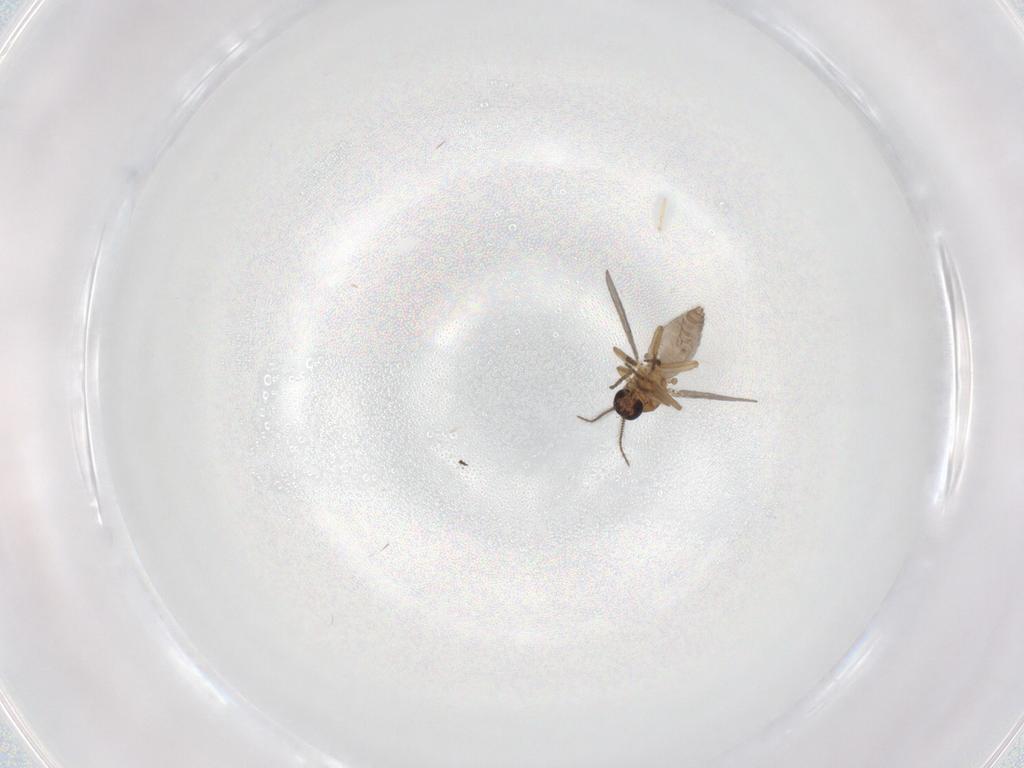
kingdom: Animalia
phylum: Arthropoda
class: Insecta
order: Diptera
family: Ceratopogonidae
